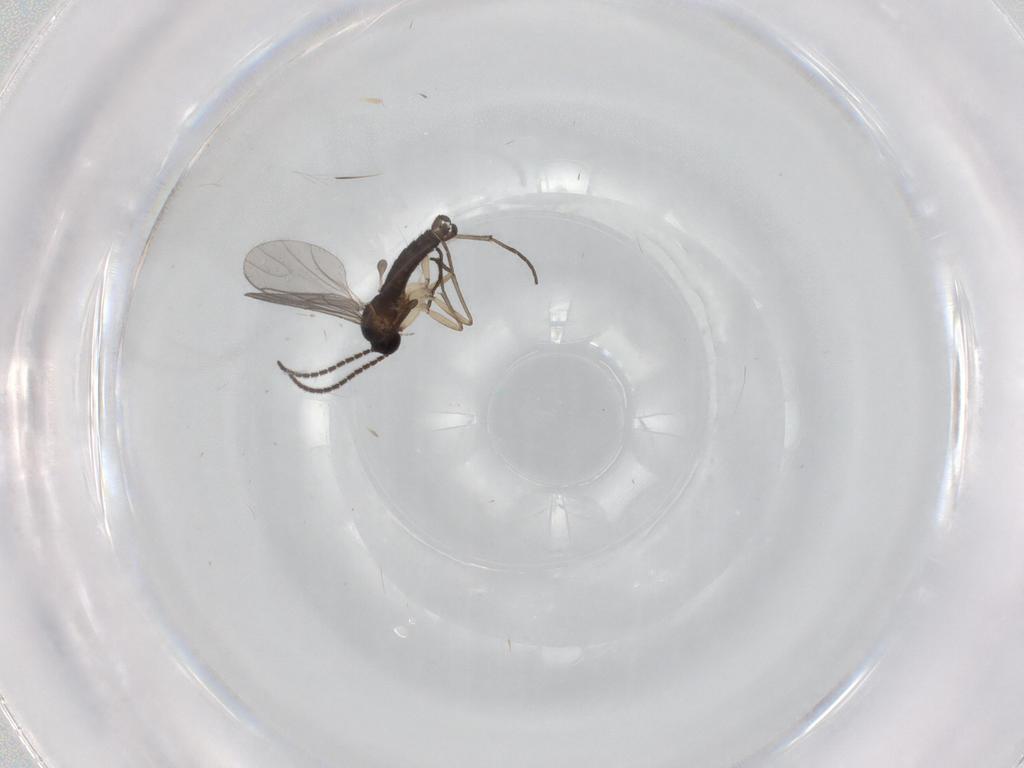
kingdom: Animalia
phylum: Arthropoda
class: Insecta
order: Diptera
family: Sciaridae
